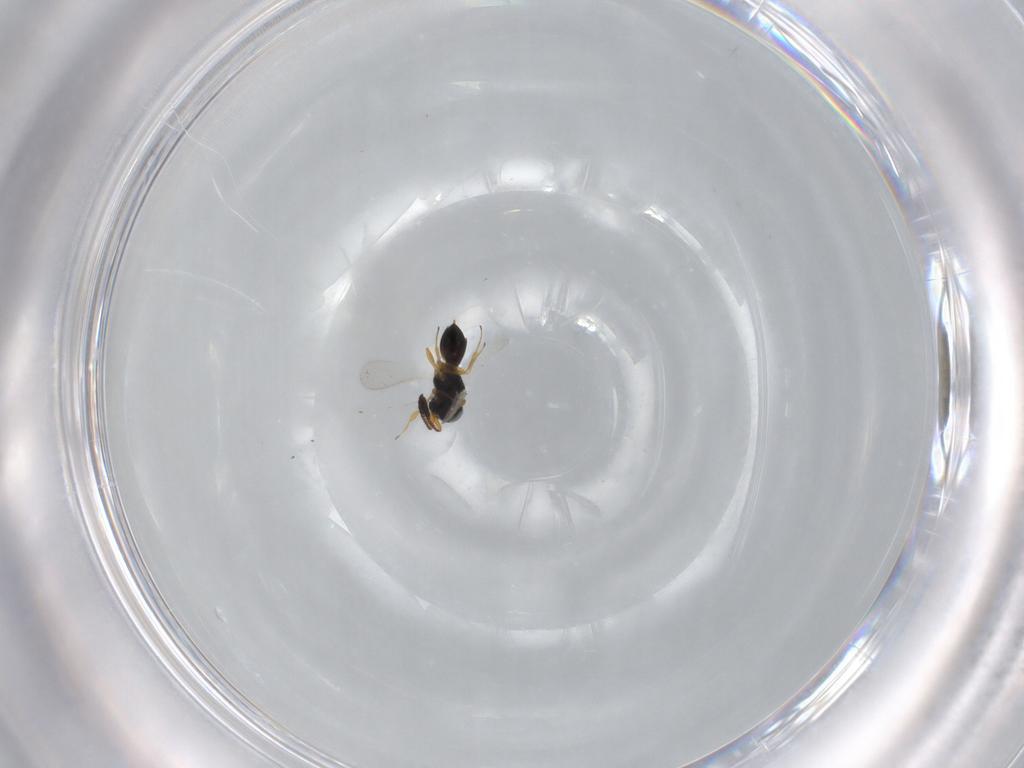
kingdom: Animalia
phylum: Arthropoda
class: Insecta
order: Hymenoptera
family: Scelionidae
